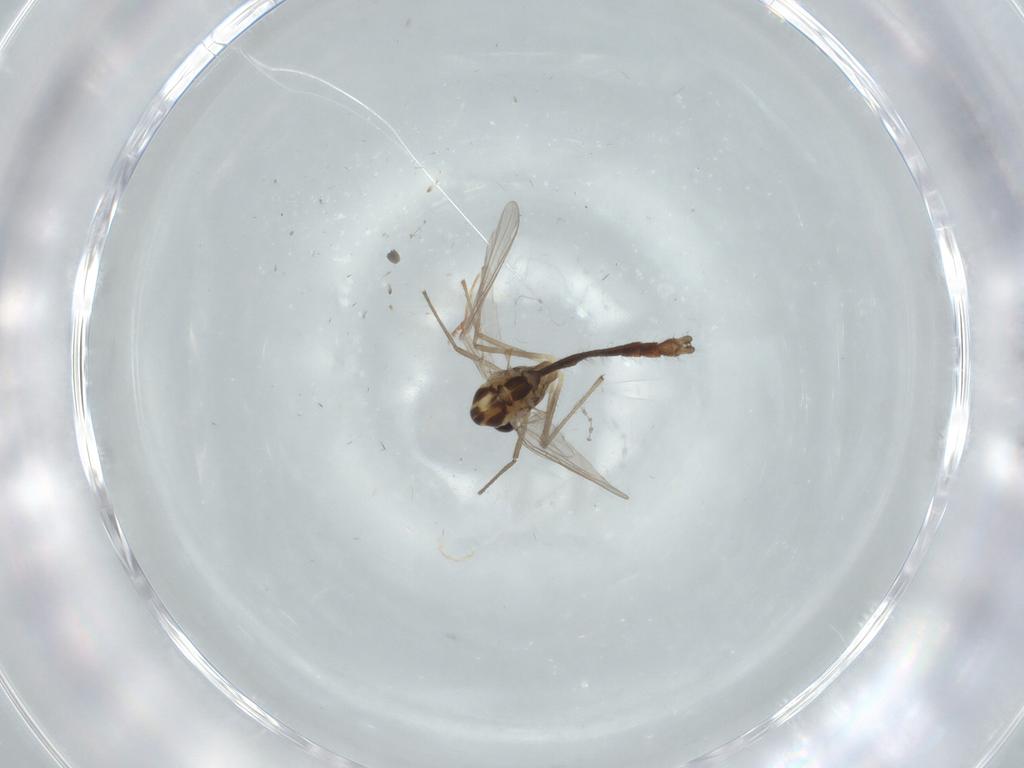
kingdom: Animalia
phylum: Arthropoda
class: Insecta
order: Diptera
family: Chironomidae
